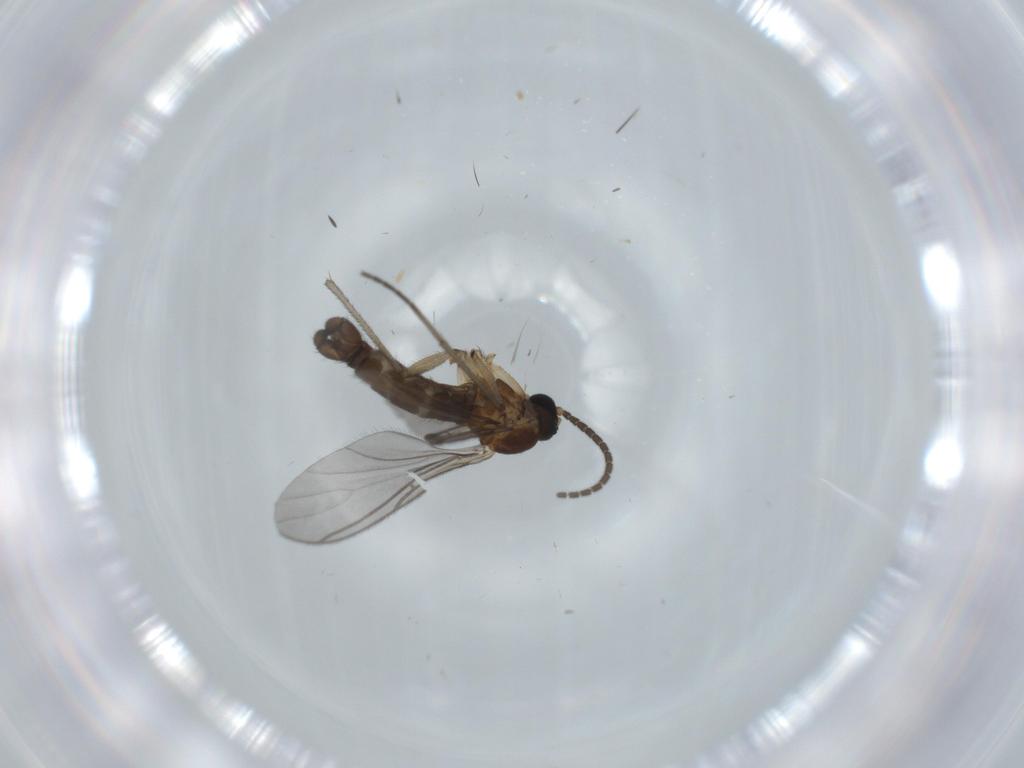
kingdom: Animalia
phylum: Arthropoda
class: Insecta
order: Diptera
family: Sciaridae
